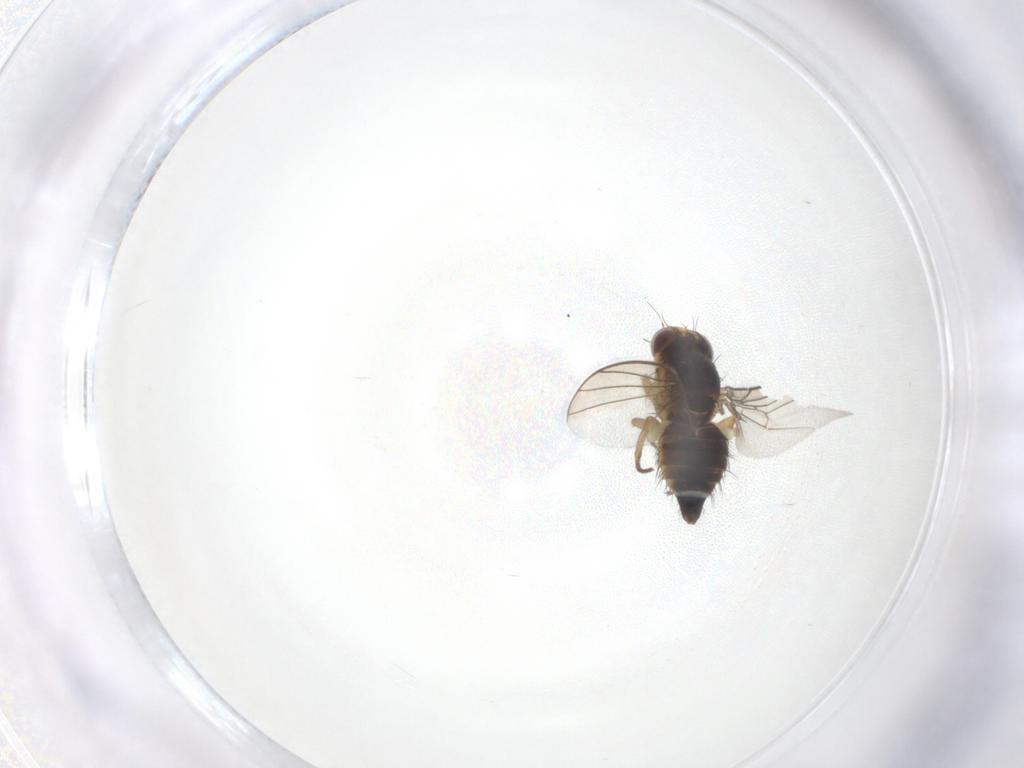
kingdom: Animalia
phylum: Arthropoda
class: Insecta
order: Diptera
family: Agromyzidae
